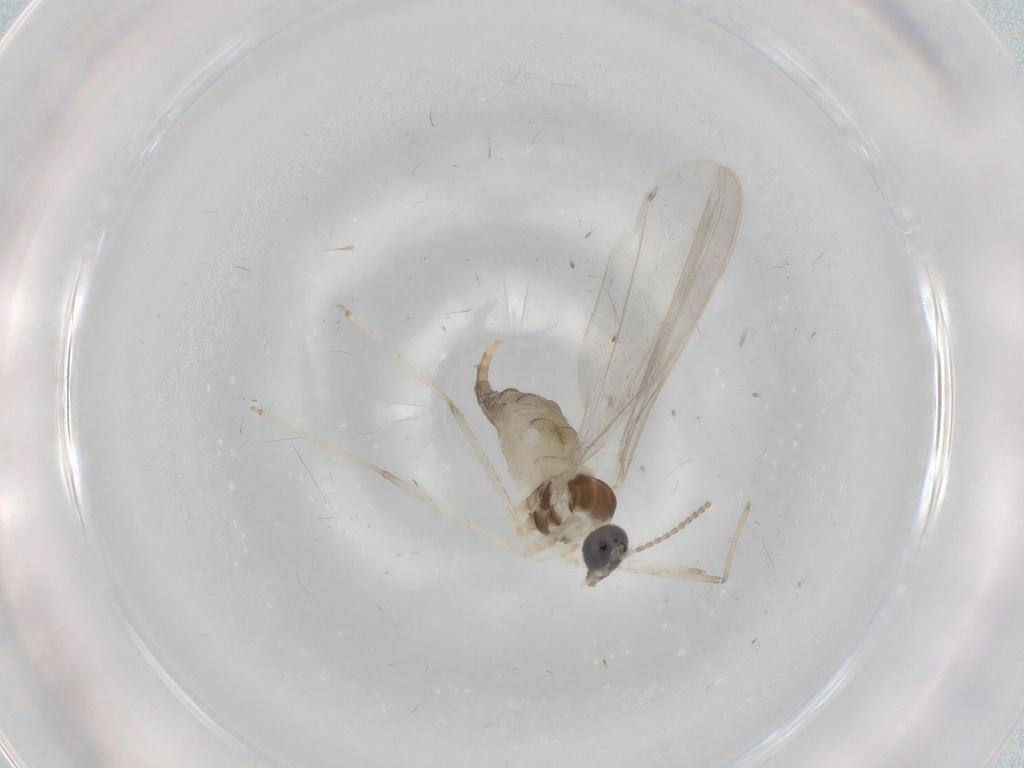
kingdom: Animalia
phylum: Arthropoda
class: Insecta
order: Diptera
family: Cecidomyiidae
